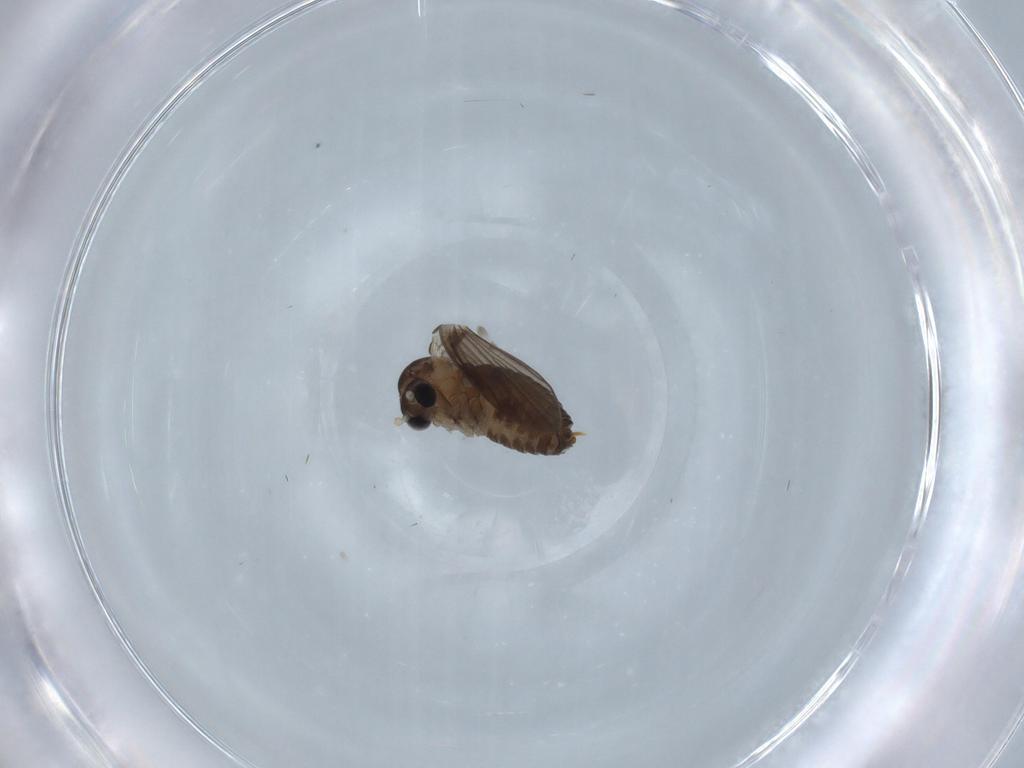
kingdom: Animalia
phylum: Arthropoda
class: Insecta
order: Diptera
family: Psychodidae
